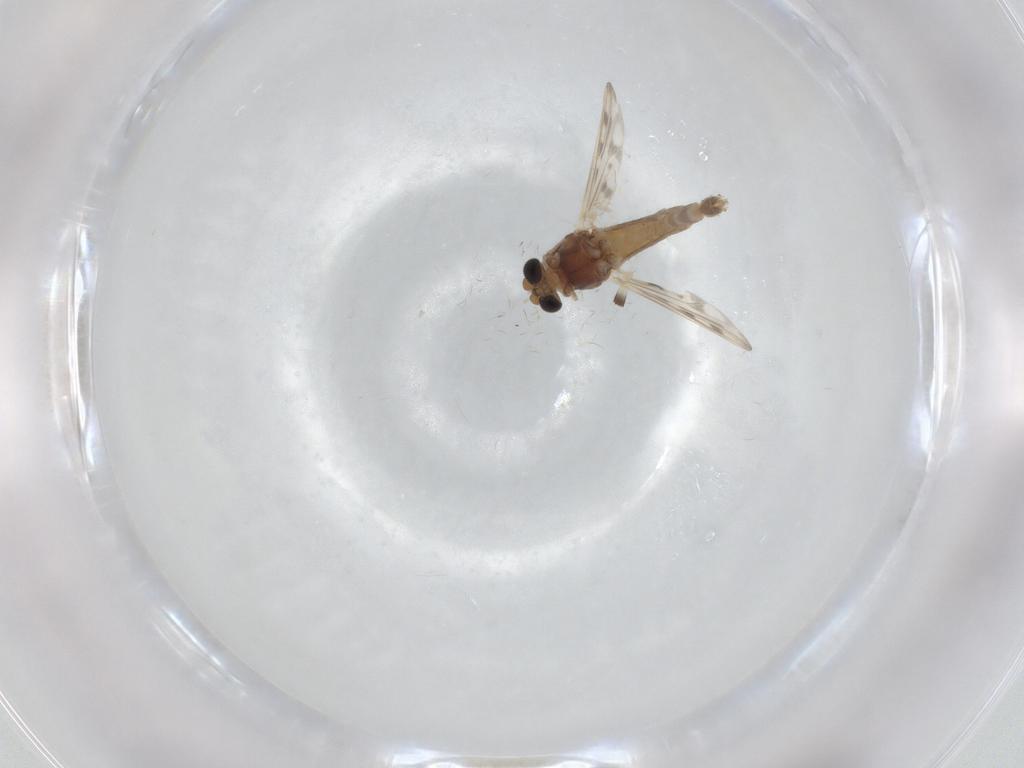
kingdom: Animalia
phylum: Arthropoda
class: Insecta
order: Diptera
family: Chironomidae
